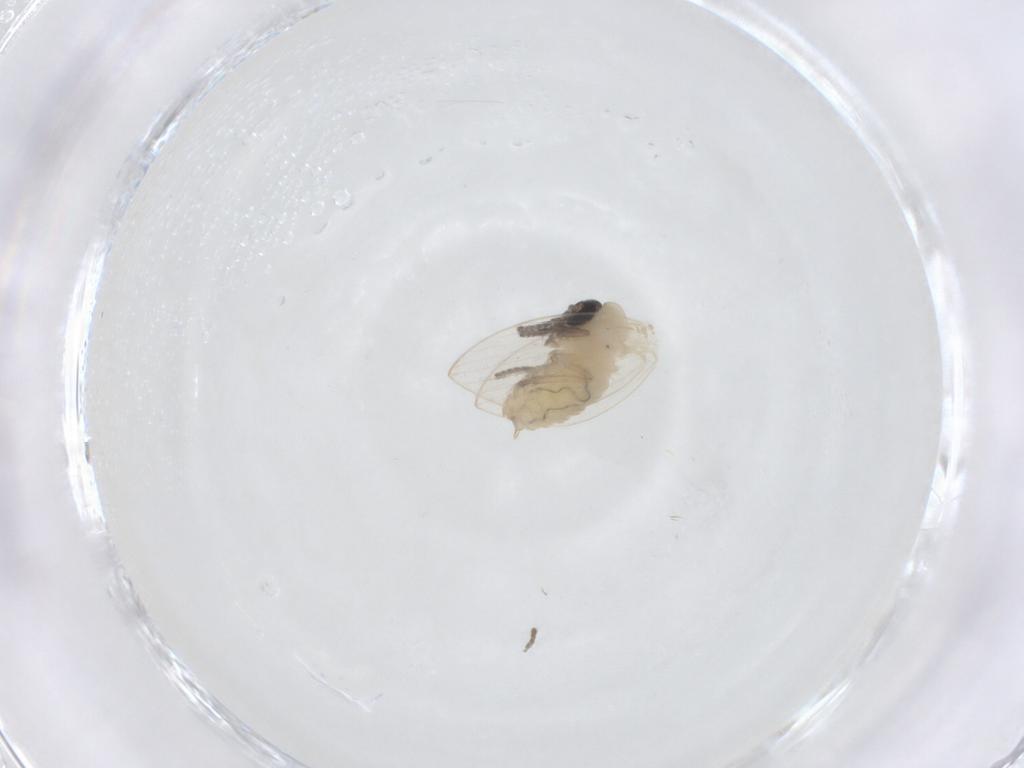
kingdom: Animalia
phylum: Arthropoda
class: Insecta
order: Diptera
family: Psychodidae
